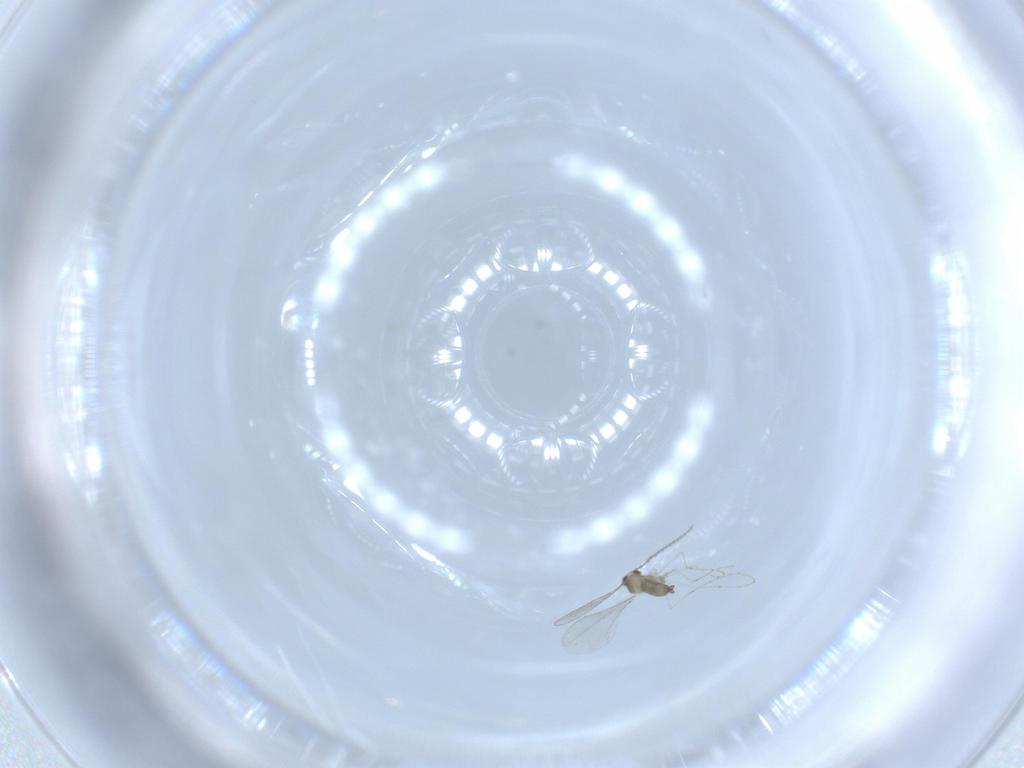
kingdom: Animalia
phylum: Arthropoda
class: Insecta
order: Diptera
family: Cecidomyiidae
